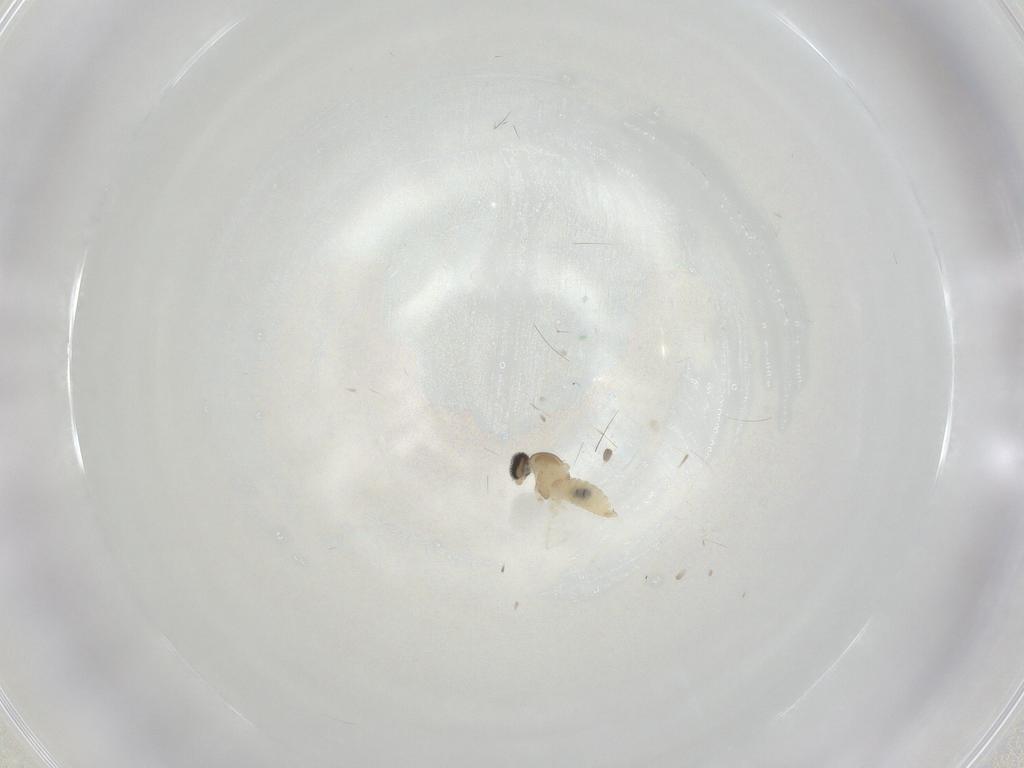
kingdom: Animalia
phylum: Arthropoda
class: Insecta
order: Diptera
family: Cecidomyiidae
